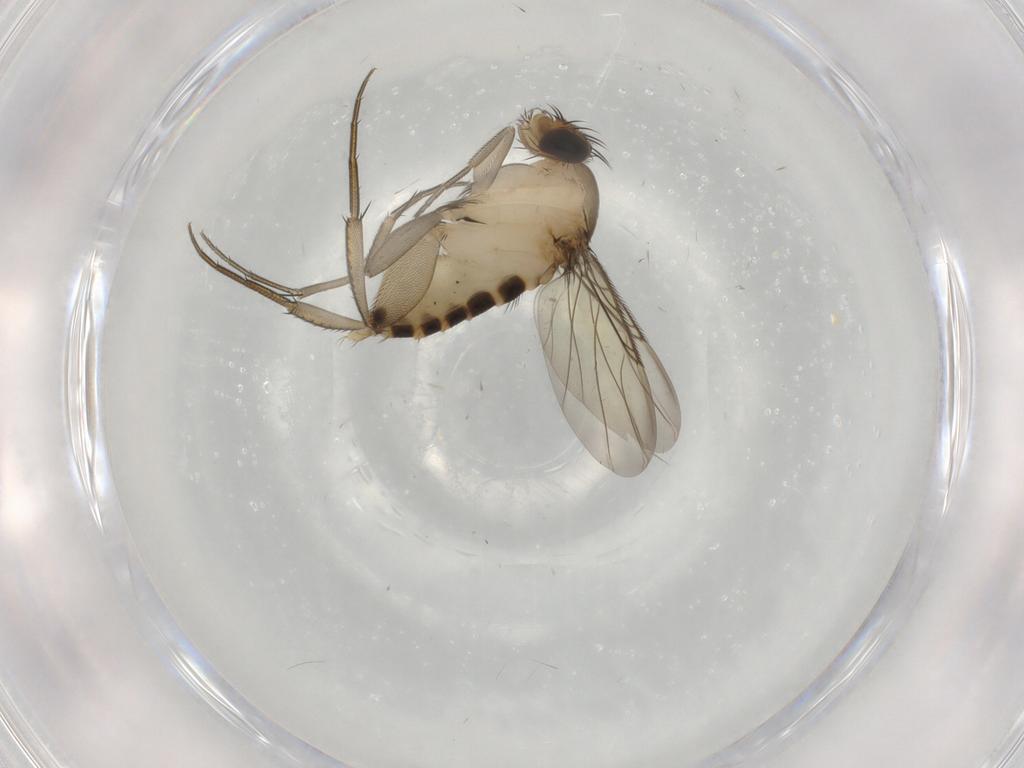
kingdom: Animalia
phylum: Arthropoda
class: Insecta
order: Diptera
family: Phoridae
